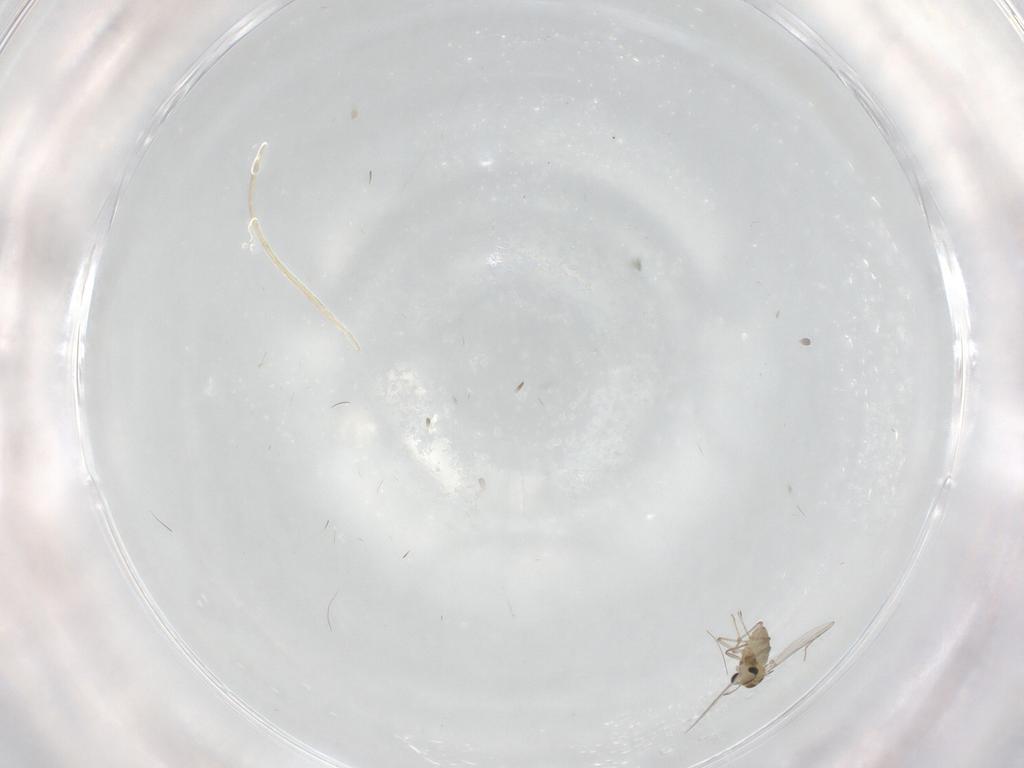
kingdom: Animalia
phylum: Arthropoda
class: Insecta
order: Diptera
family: Chironomidae
